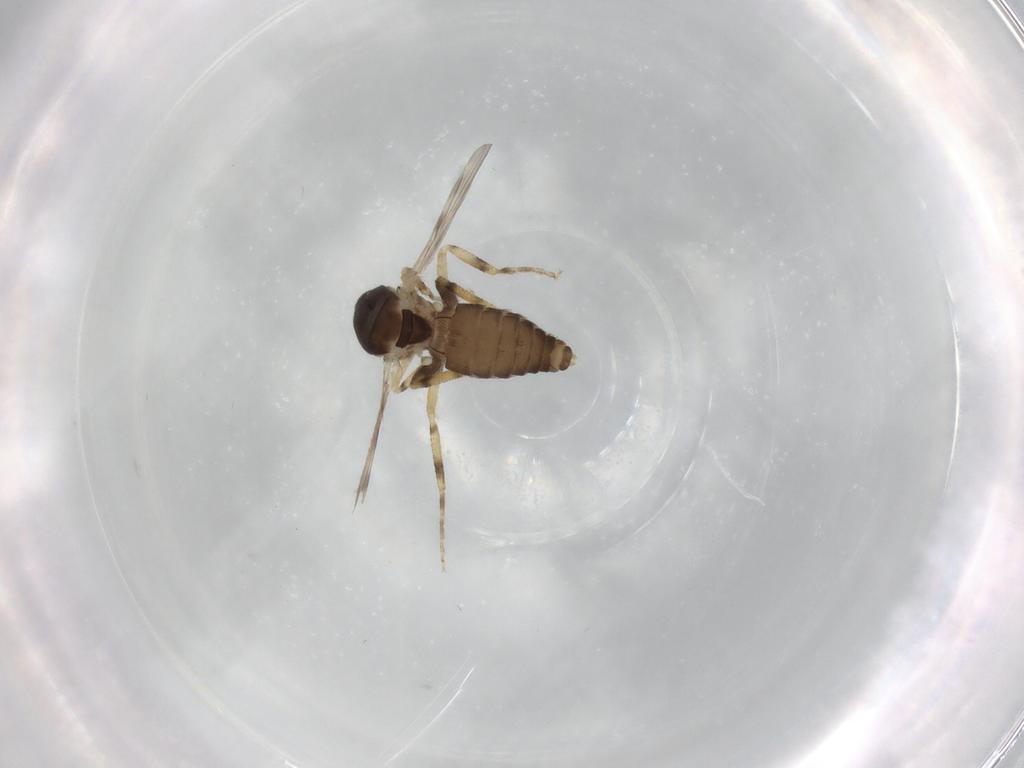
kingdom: Animalia
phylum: Arthropoda
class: Insecta
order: Diptera
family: Ceratopogonidae
